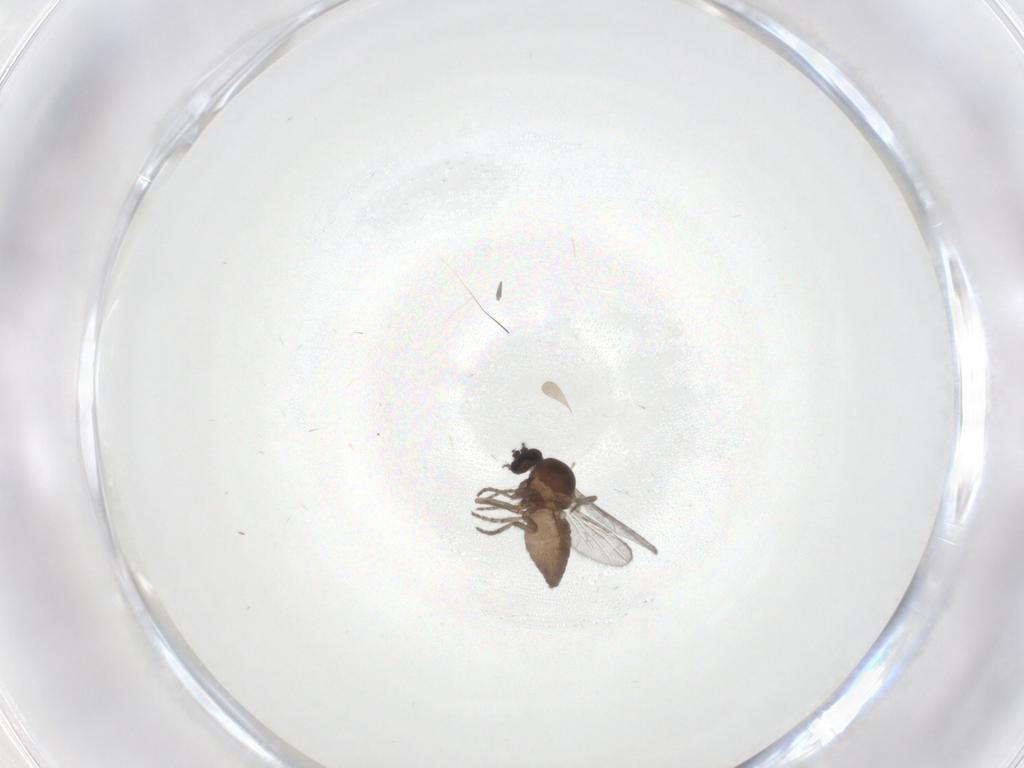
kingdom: Animalia
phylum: Arthropoda
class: Insecta
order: Diptera
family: Ceratopogonidae
